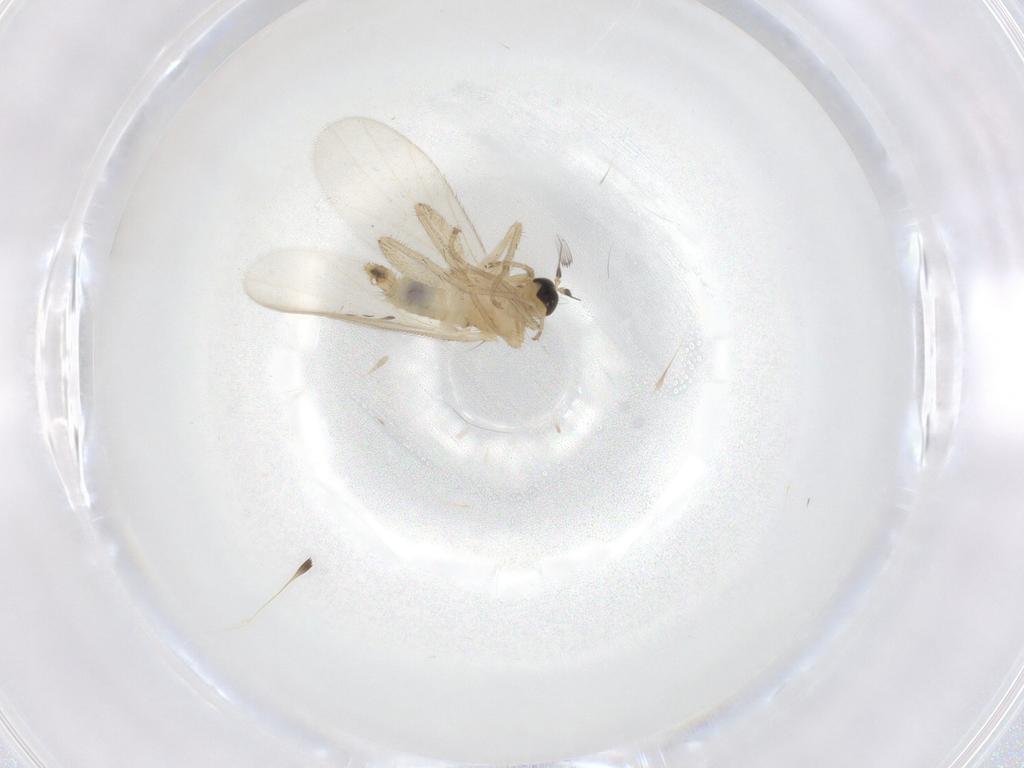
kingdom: Animalia
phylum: Arthropoda
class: Insecta
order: Diptera
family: Hybotidae
